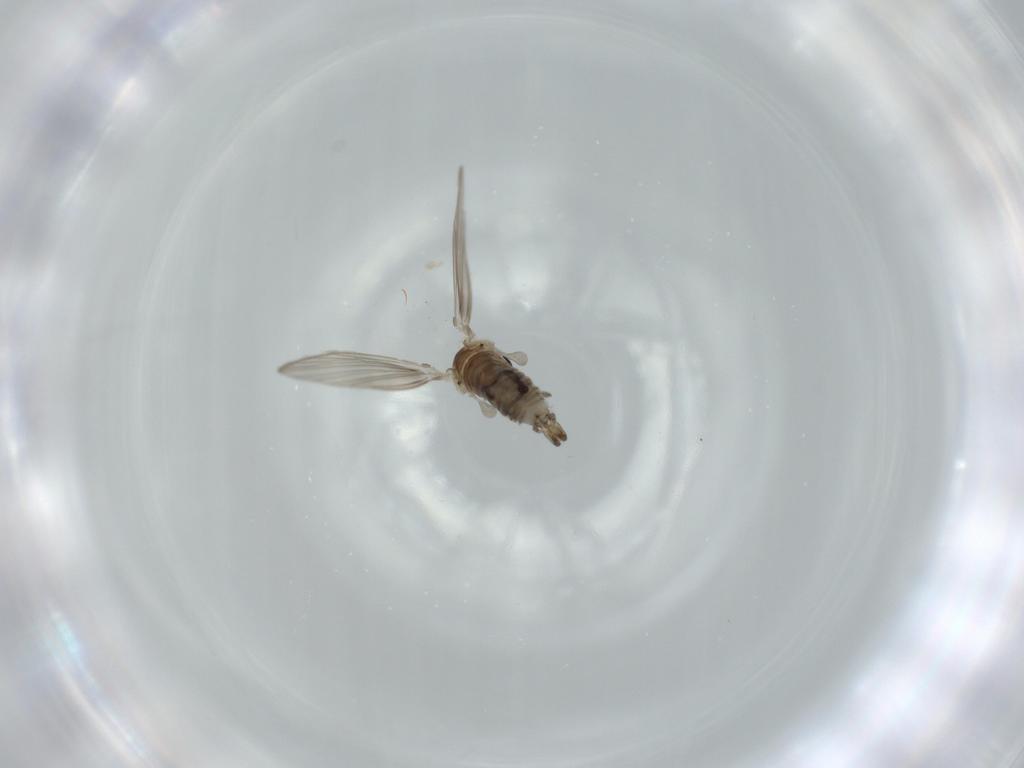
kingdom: Animalia
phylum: Arthropoda
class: Insecta
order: Diptera
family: Psychodidae
